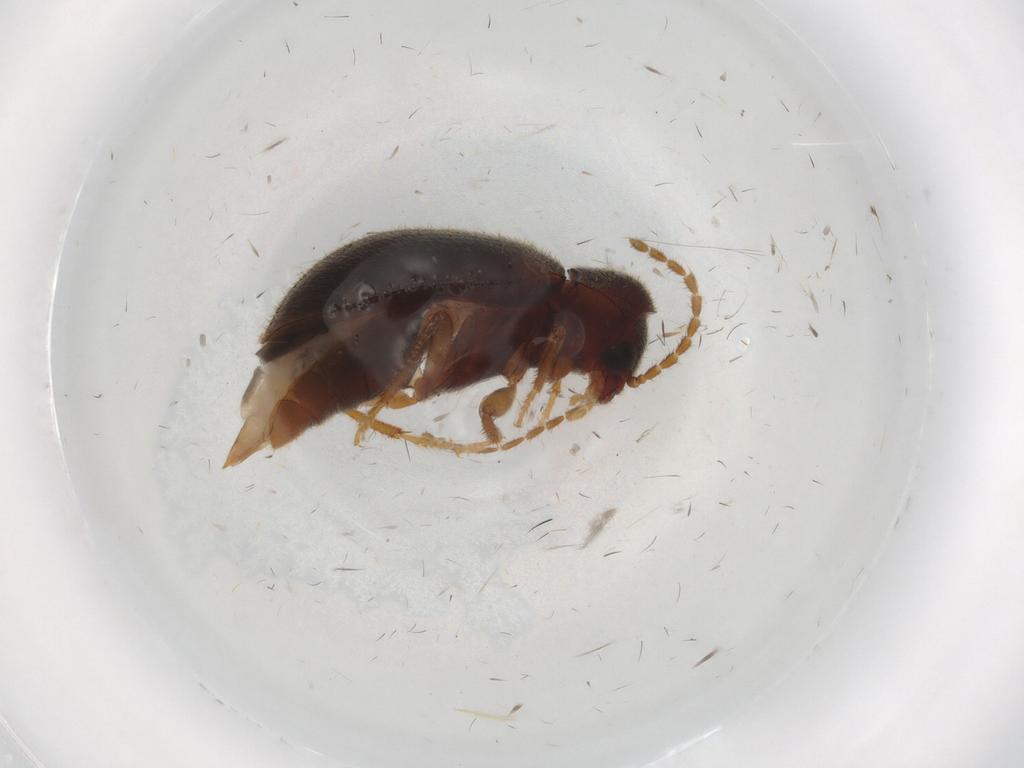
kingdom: Animalia
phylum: Arthropoda
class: Insecta
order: Coleoptera
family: Ptilodactylidae
